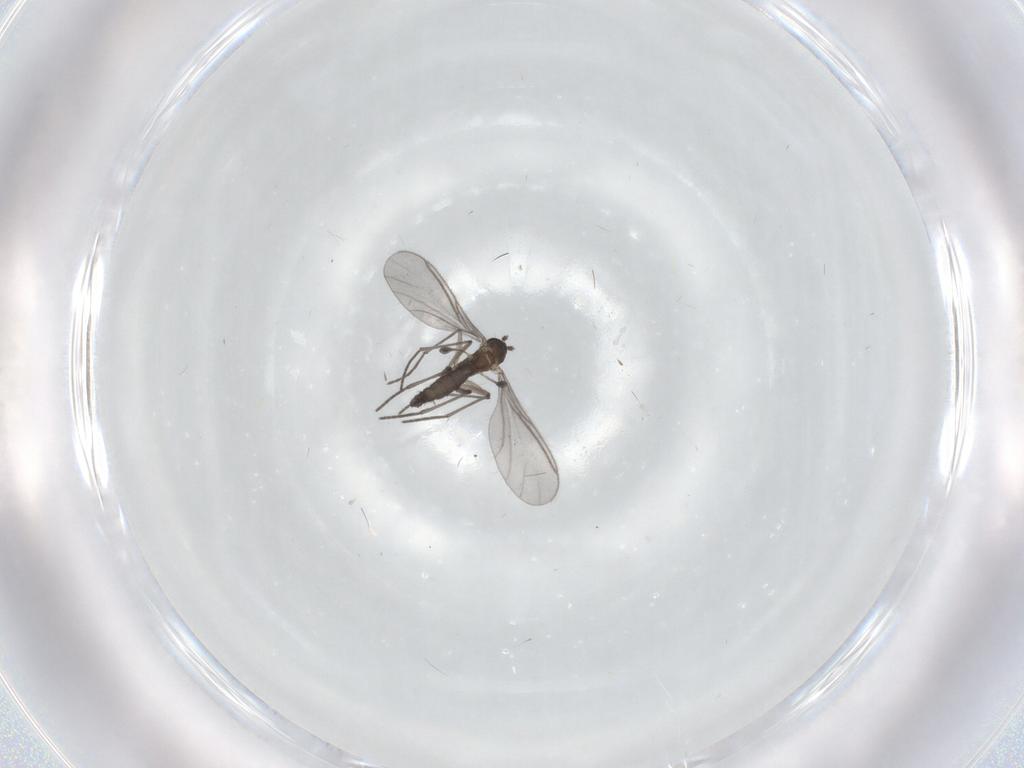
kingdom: Animalia
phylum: Arthropoda
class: Insecta
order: Diptera
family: Sciaridae
